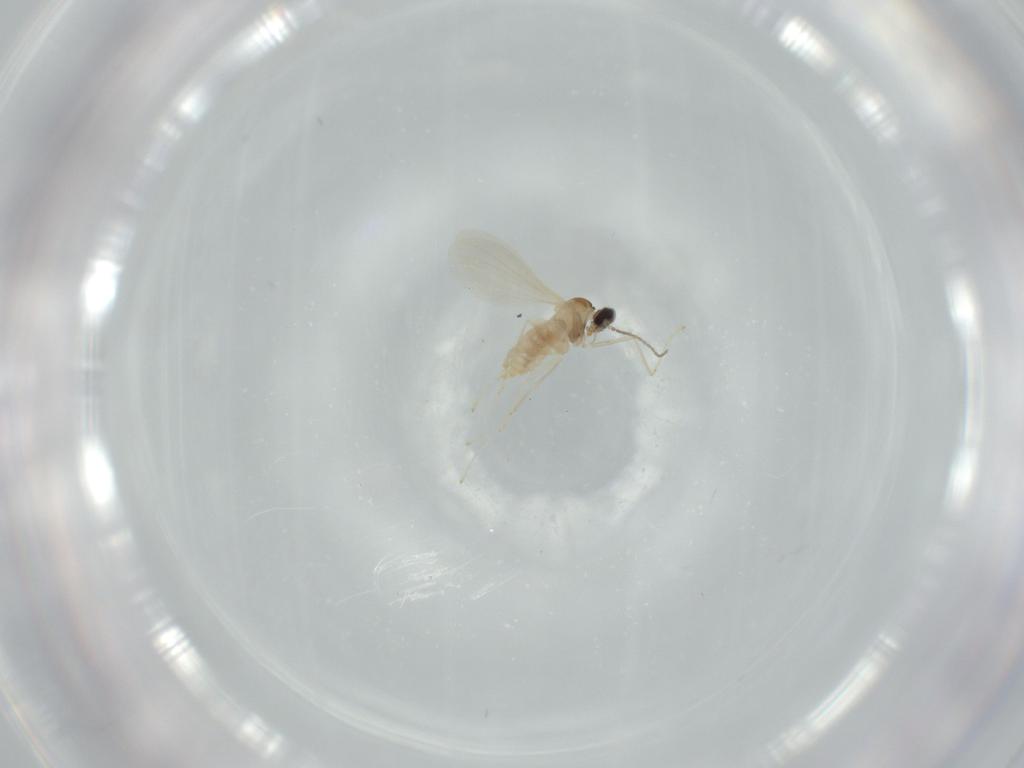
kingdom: Animalia
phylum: Arthropoda
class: Insecta
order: Diptera
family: Cecidomyiidae
